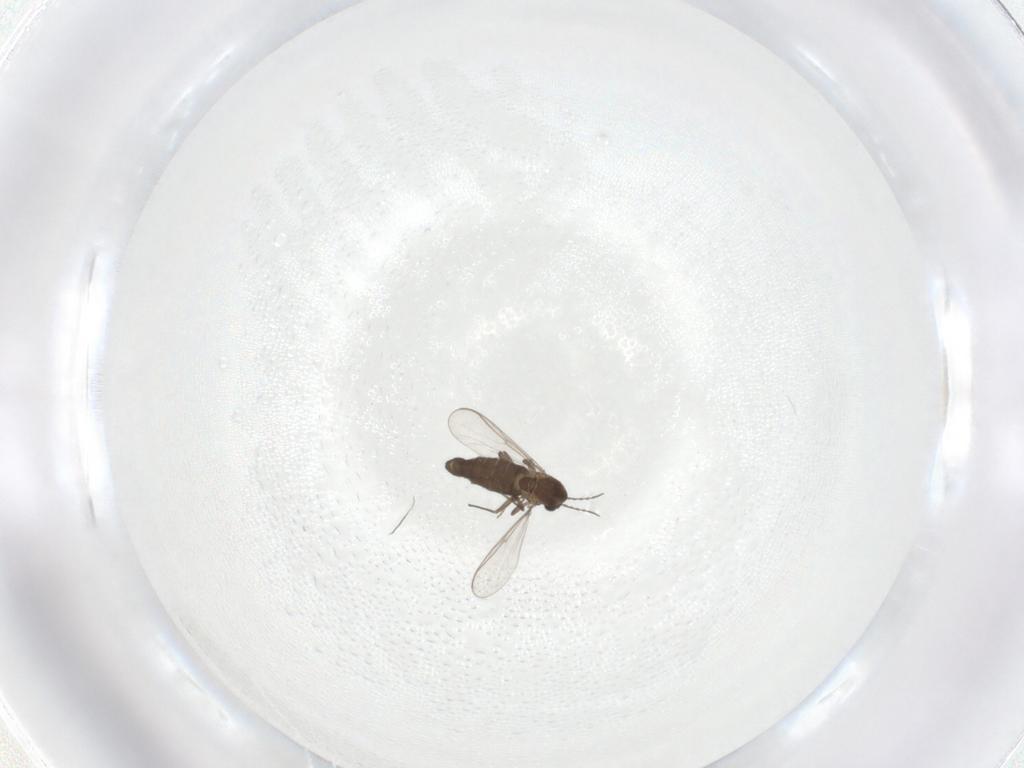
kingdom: Animalia
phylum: Arthropoda
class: Insecta
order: Diptera
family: Chironomidae
